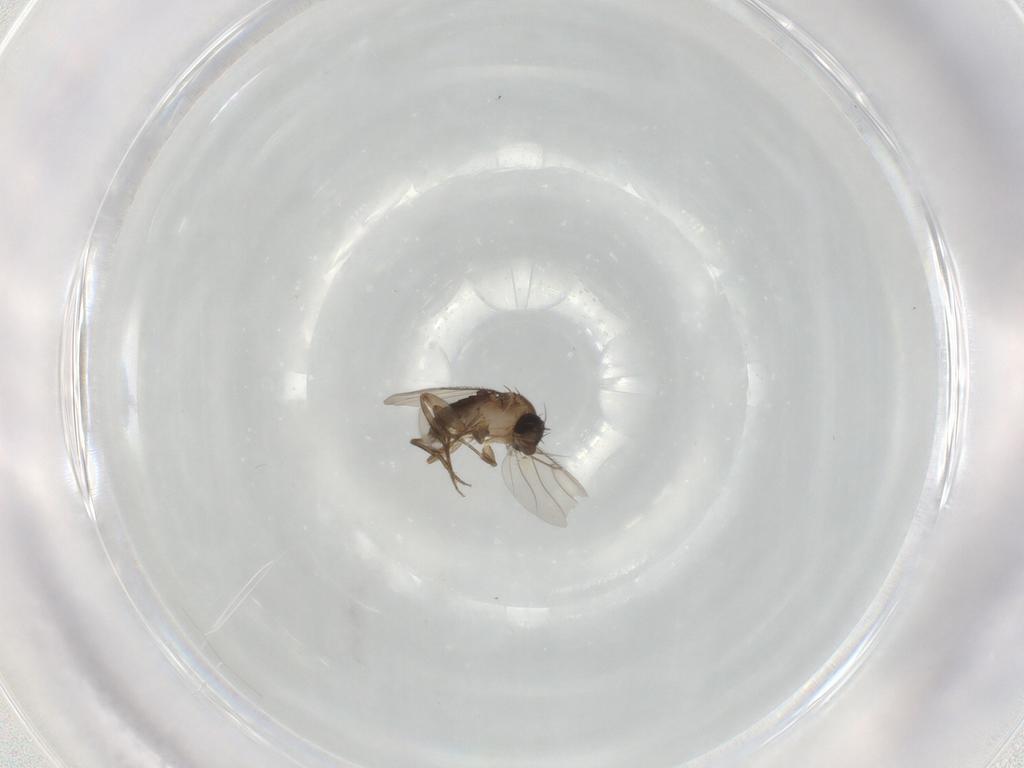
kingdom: Animalia
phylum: Arthropoda
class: Insecta
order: Diptera
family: Phoridae
